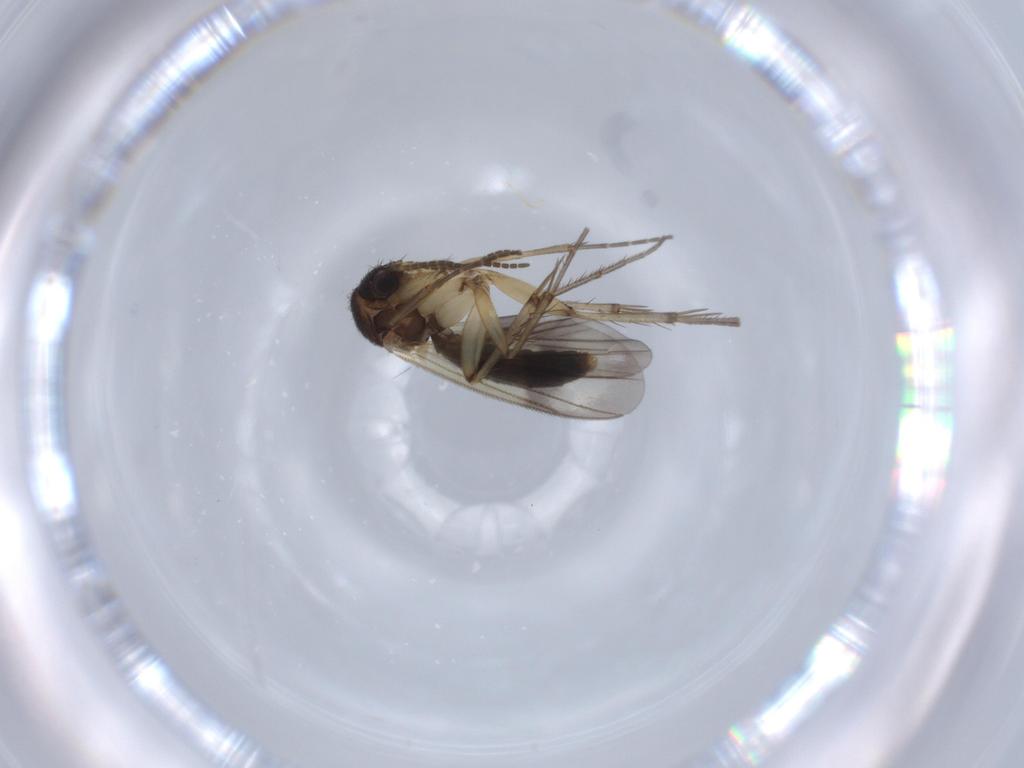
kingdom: Animalia
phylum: Arthropoda
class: Insecta
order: Diptera
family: Mycetophilidae
